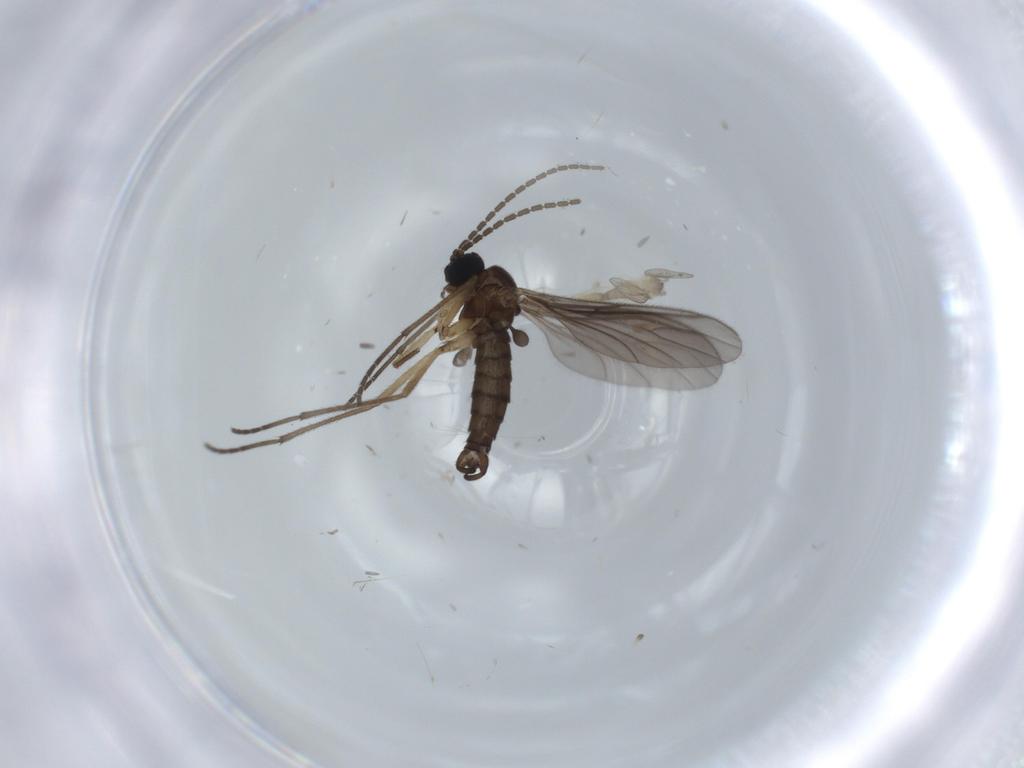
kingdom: Animalia
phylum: Arthropoda
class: Insecta
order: Diptera
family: Cecidomyiidae
